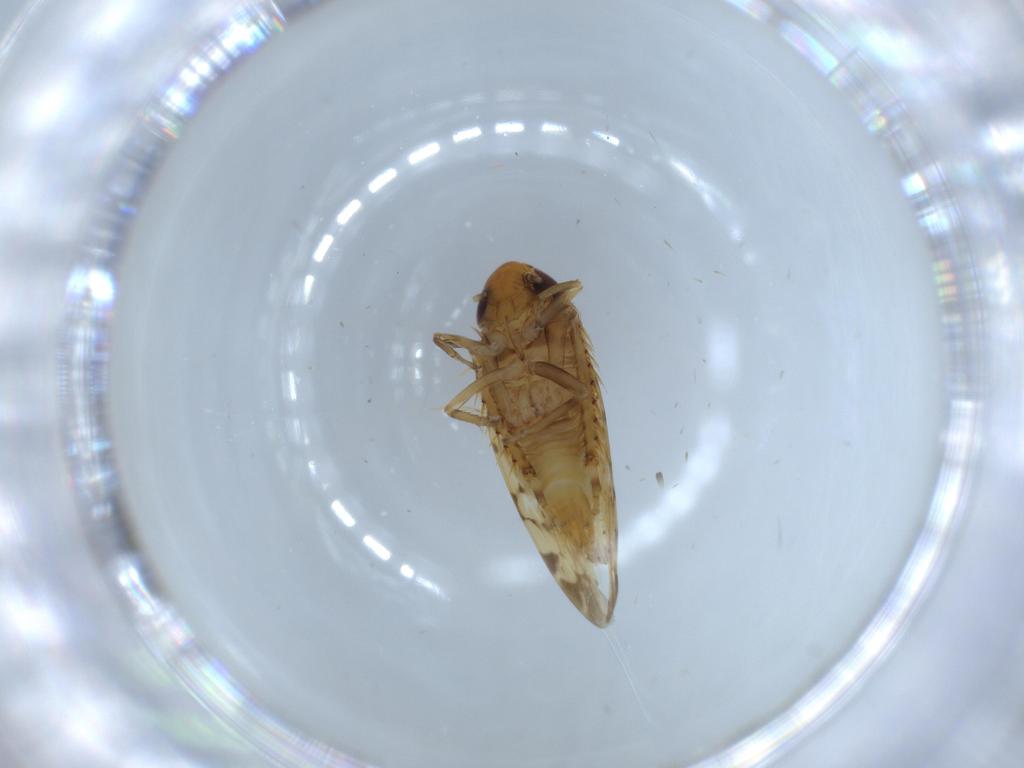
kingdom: Animalia
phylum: Arthropoda
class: Insecta
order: Hemiptera
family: Cicadellidae
